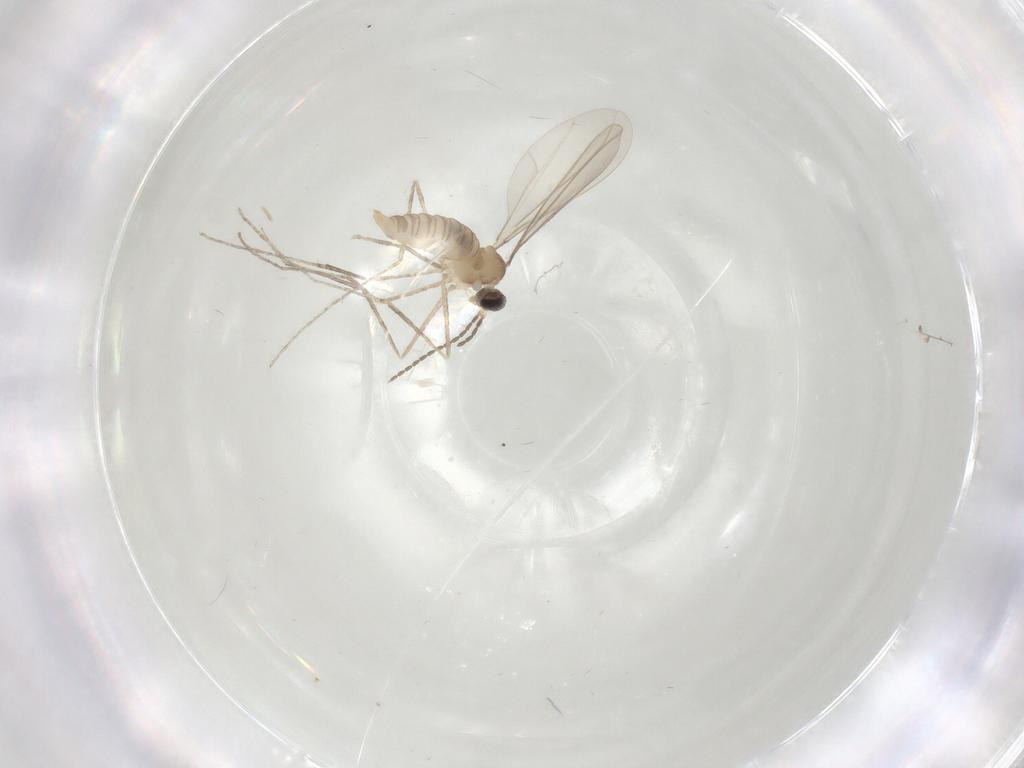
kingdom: Animalia
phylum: Arthropoda
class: Insecta
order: Diptera
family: Cecidomyiidae
